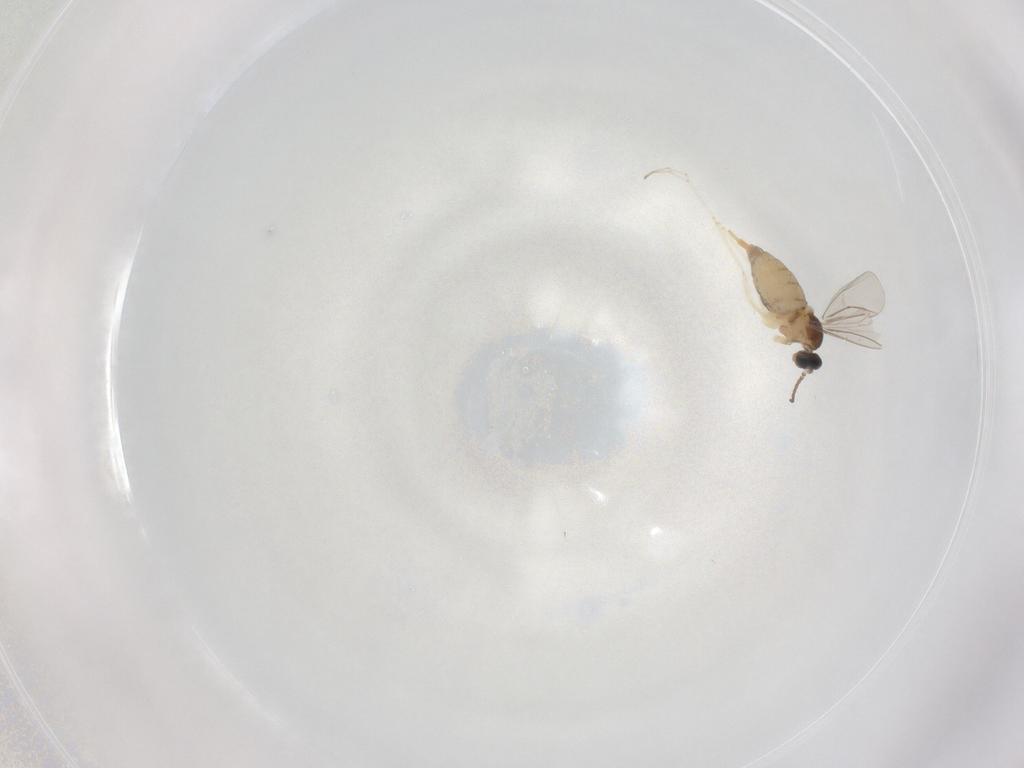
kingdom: Animalia
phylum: Arthropoda
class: Insecta
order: Diptera
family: Cecidomyiidae
